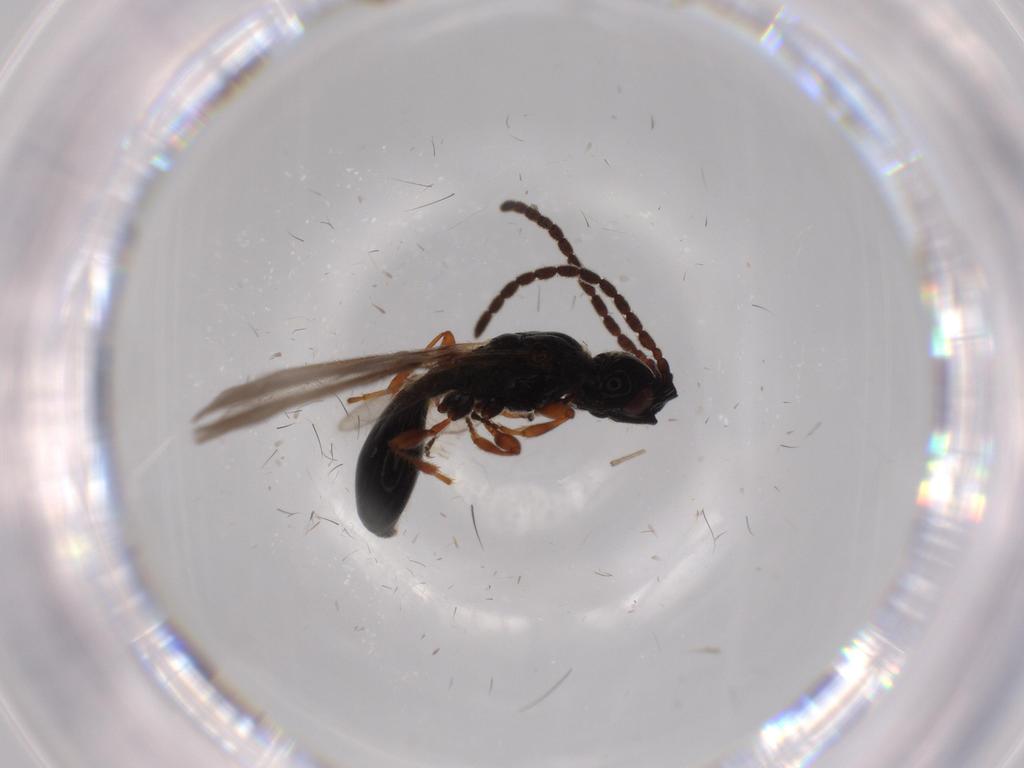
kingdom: Animalia
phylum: Arthropoda
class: Insecta
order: Hymenoptera
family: Diapriidae
